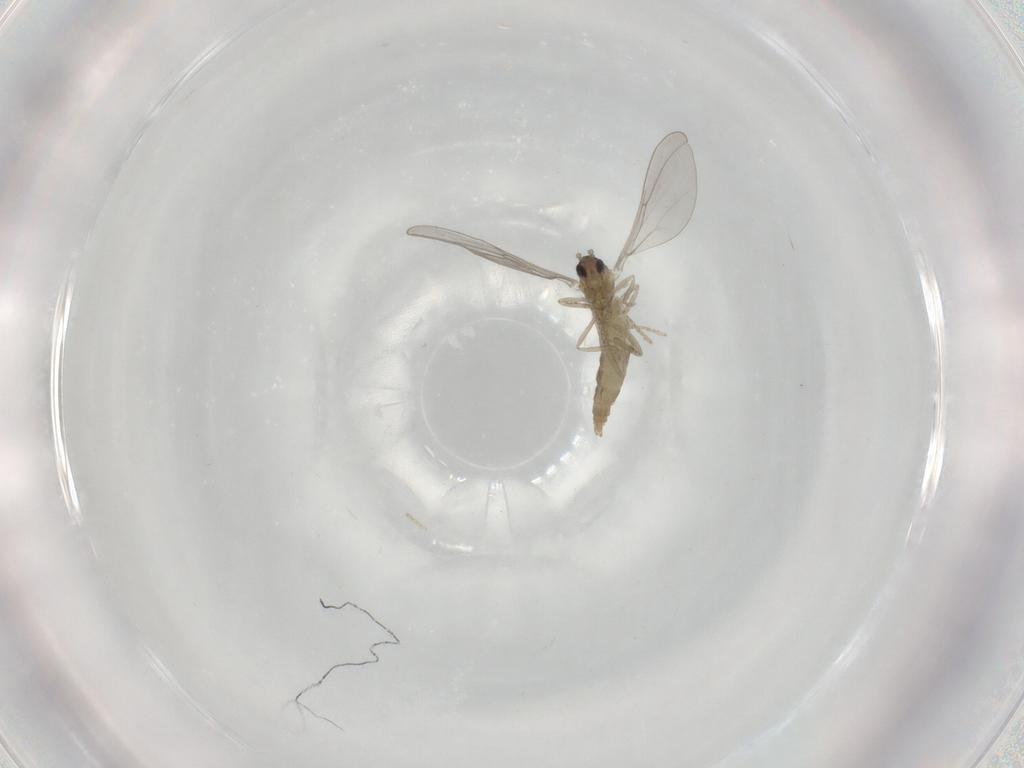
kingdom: Animalia
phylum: Arthropoda
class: Insecta
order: Diptera
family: Cecidomyiidae
